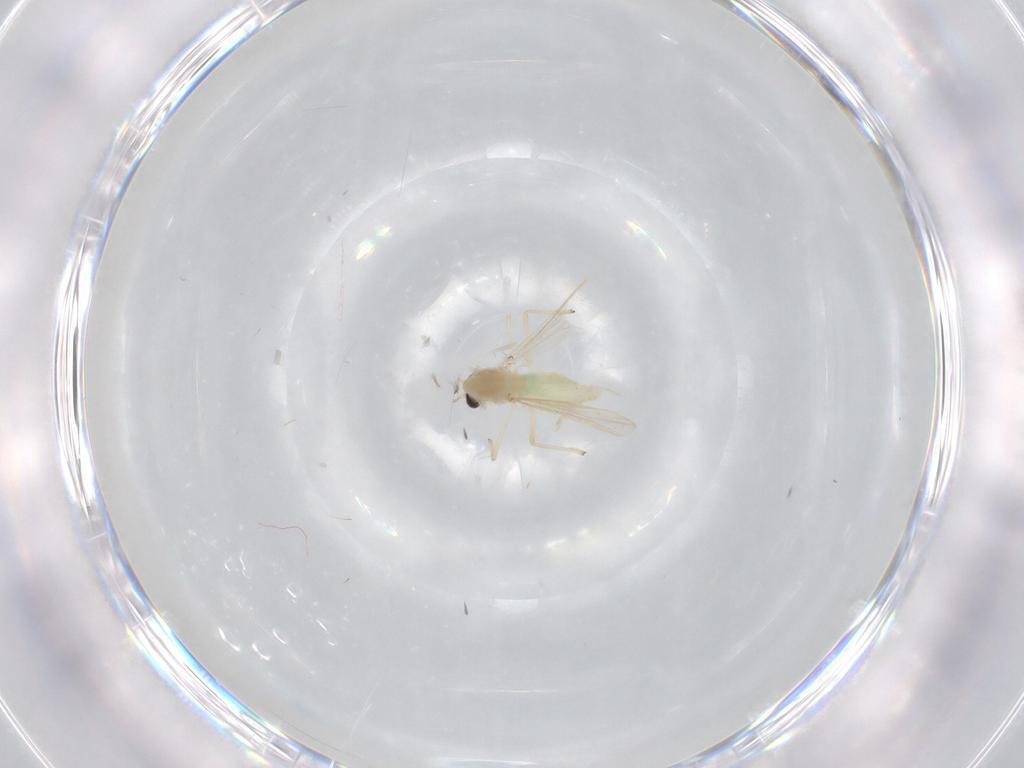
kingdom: Animalia
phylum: Arthropoda
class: Insecta
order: Diptera
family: Chironomidae
